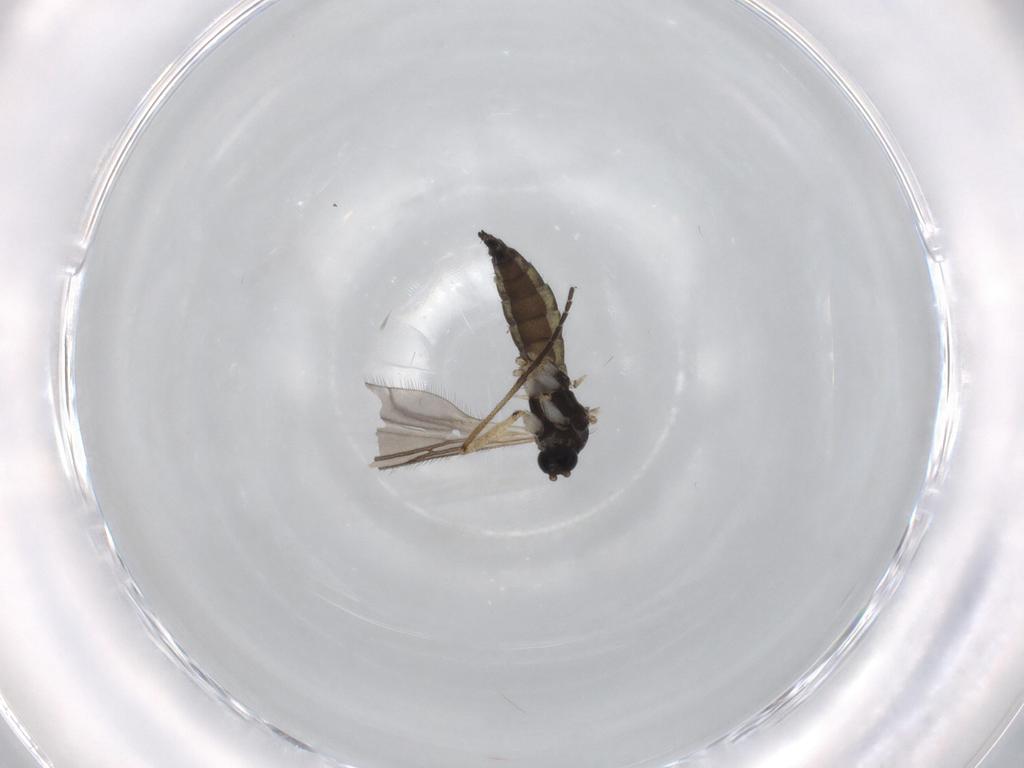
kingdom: Animalia
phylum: Arthropoda
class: Insecta
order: Diptera
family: Sciaridae
